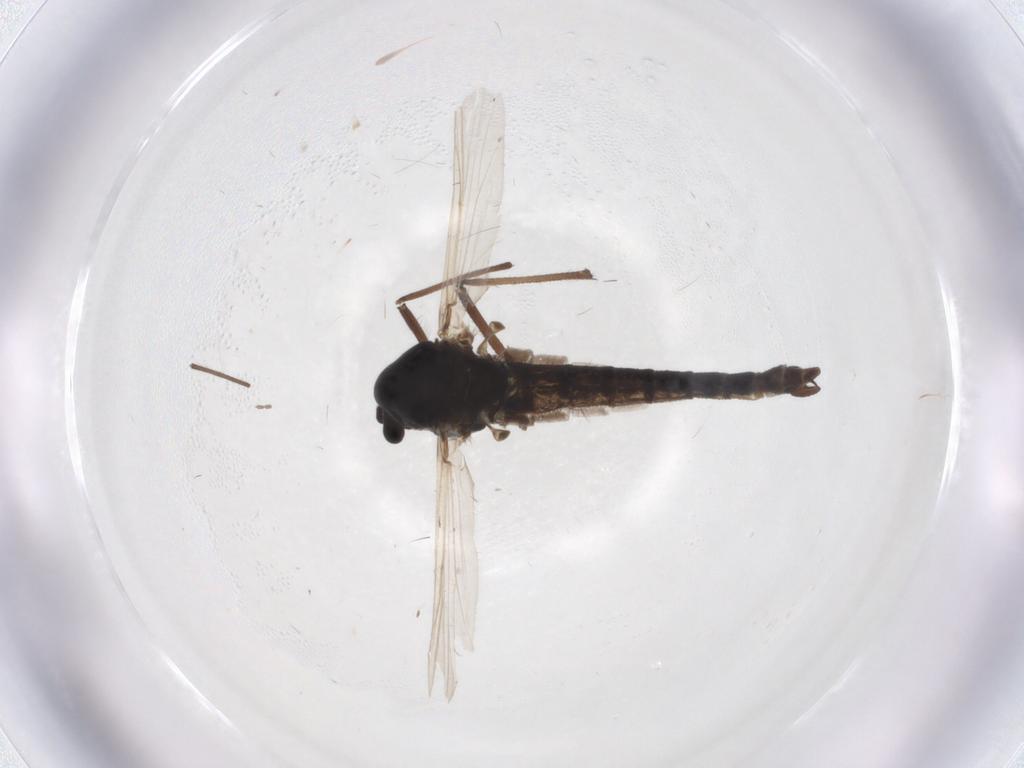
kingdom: Animalia
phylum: Arthropoda
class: Insecta
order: Diptera
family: Chironomidae
